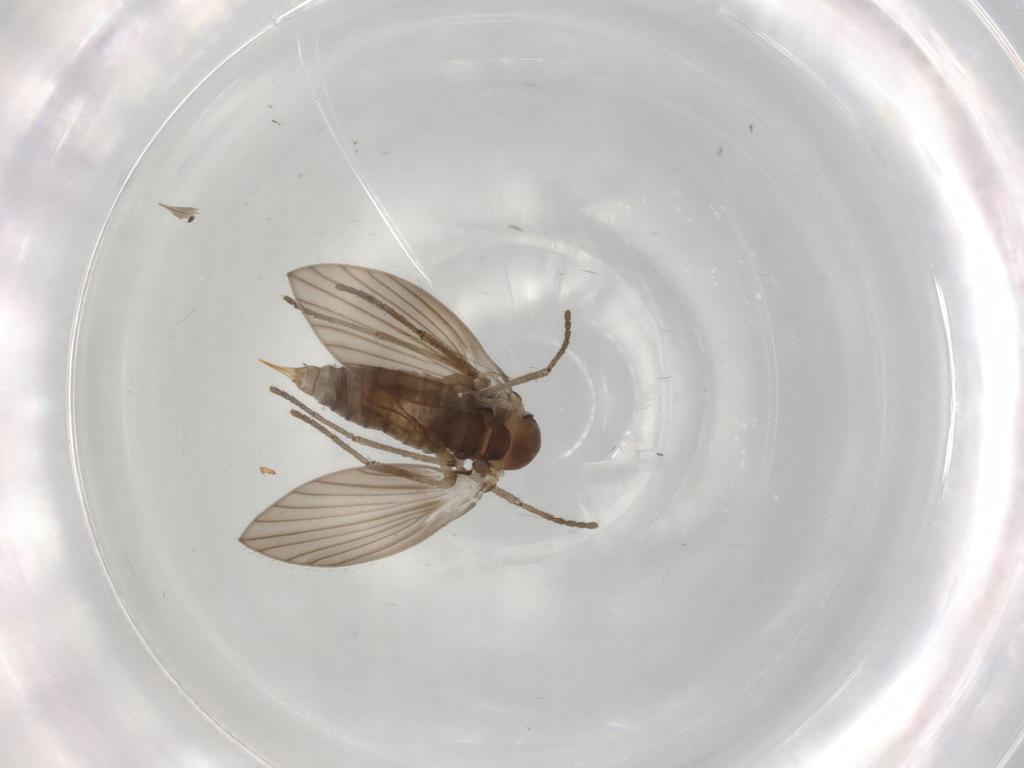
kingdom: Animalia
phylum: Arthropoda
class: Insecta
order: Diptera
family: Psychodidae
